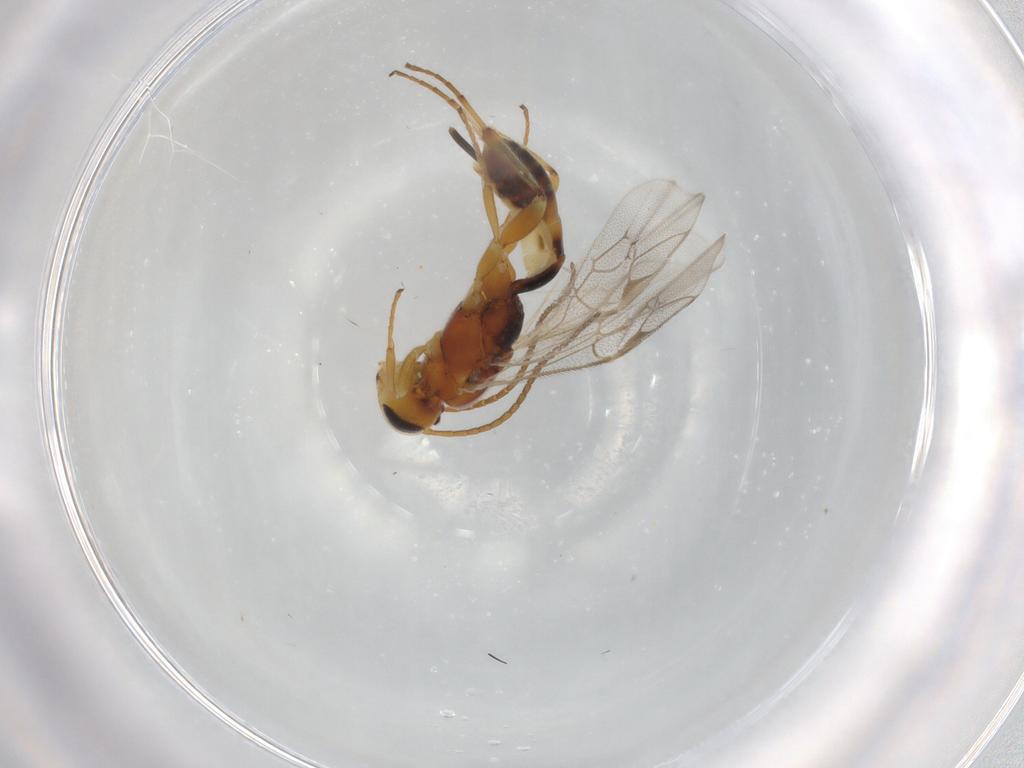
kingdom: Animalia
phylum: Arthropoda
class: Insecta
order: Hymenoptera
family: Ichneumonidae
